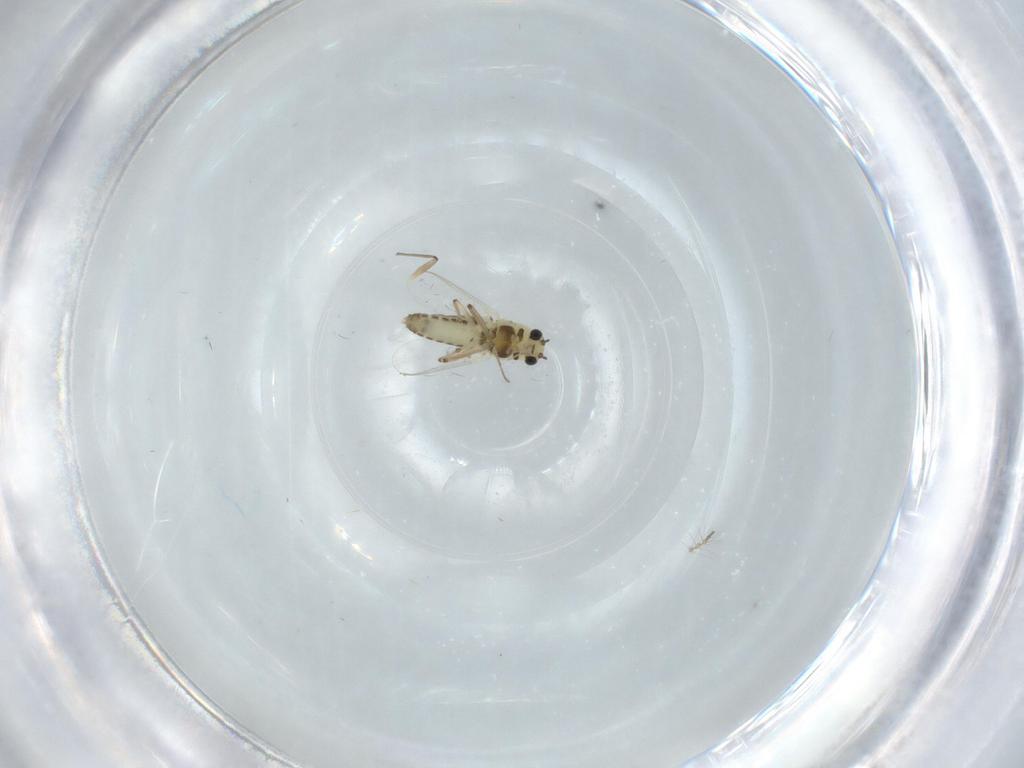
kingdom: Animalia
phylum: Arthropoda
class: Insecta
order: Diptera
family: Chironomidae
